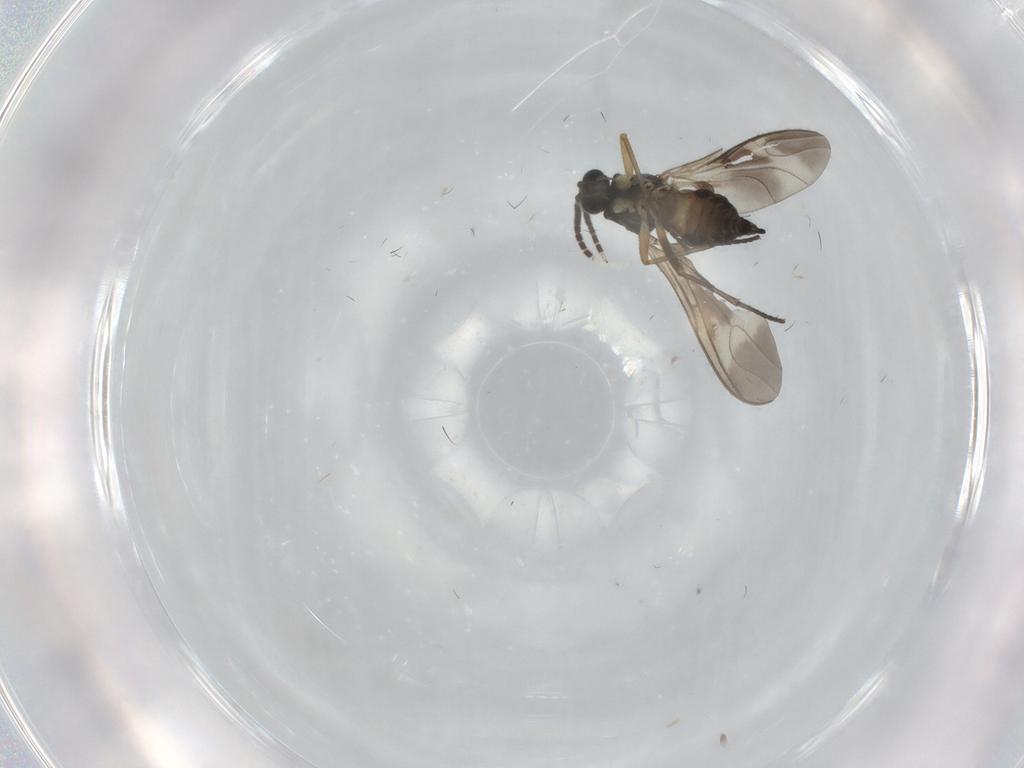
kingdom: Animalia
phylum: Arthropoda
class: Insecta
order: Diptera
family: Sciaridae
